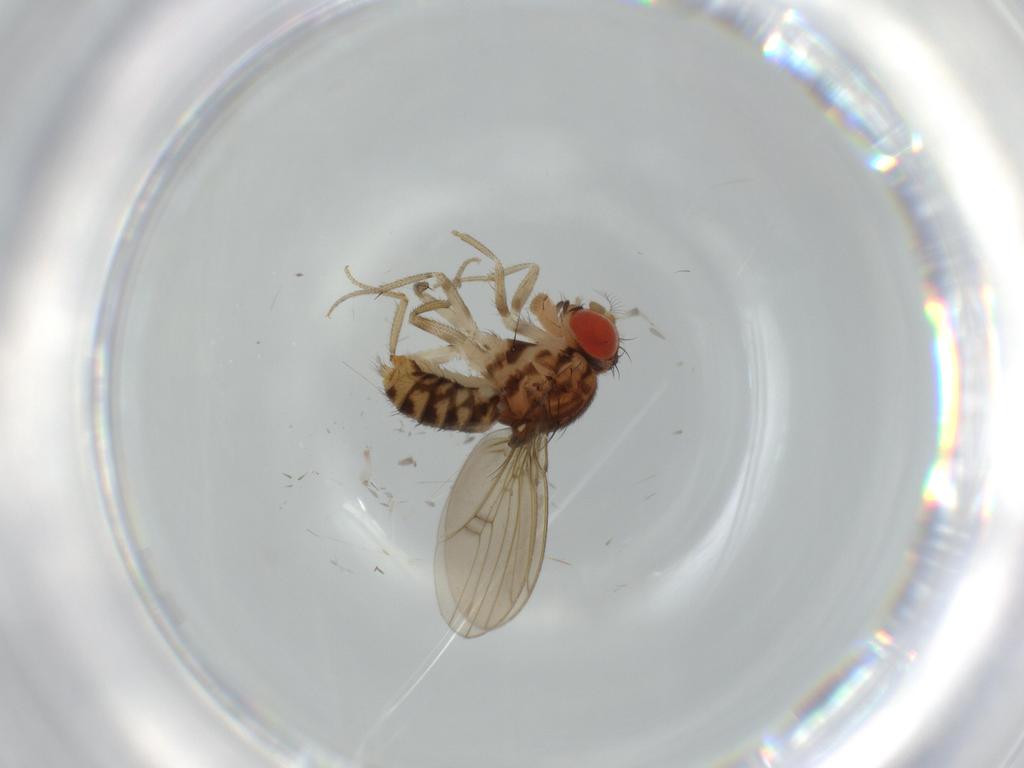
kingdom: Animalia
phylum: Arthropoda
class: Insecta
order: Diptera
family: Drosophilidae
